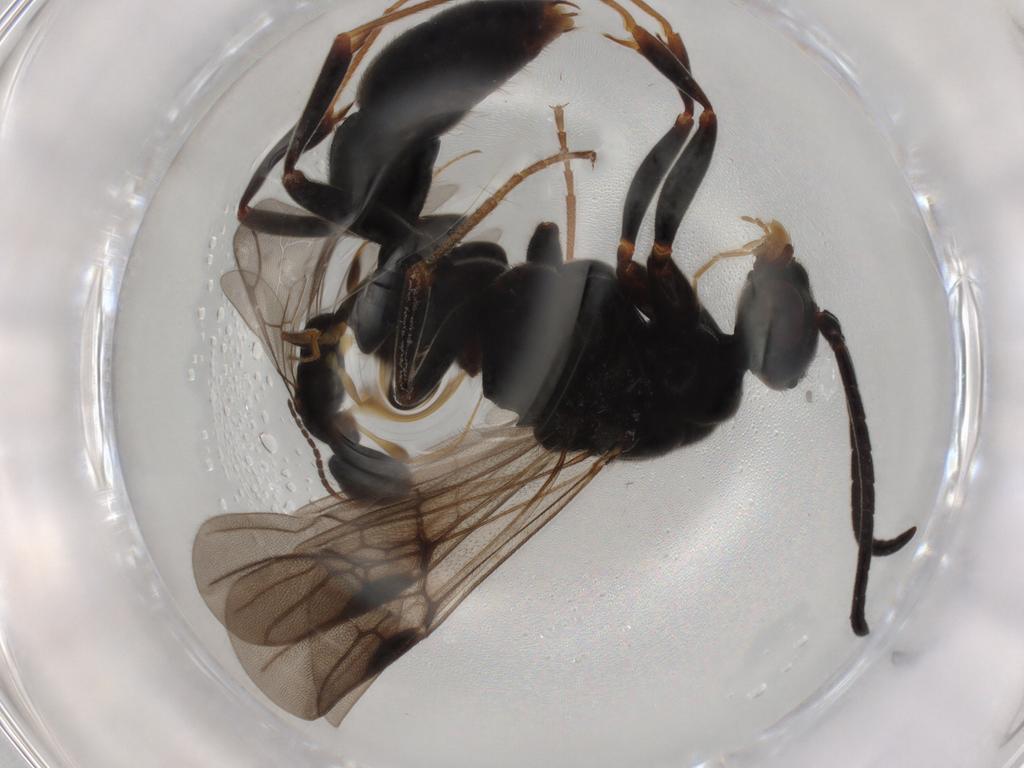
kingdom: Animalia
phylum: Arthropoda
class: Insecta
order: Hymenoptera
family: Formicidae
